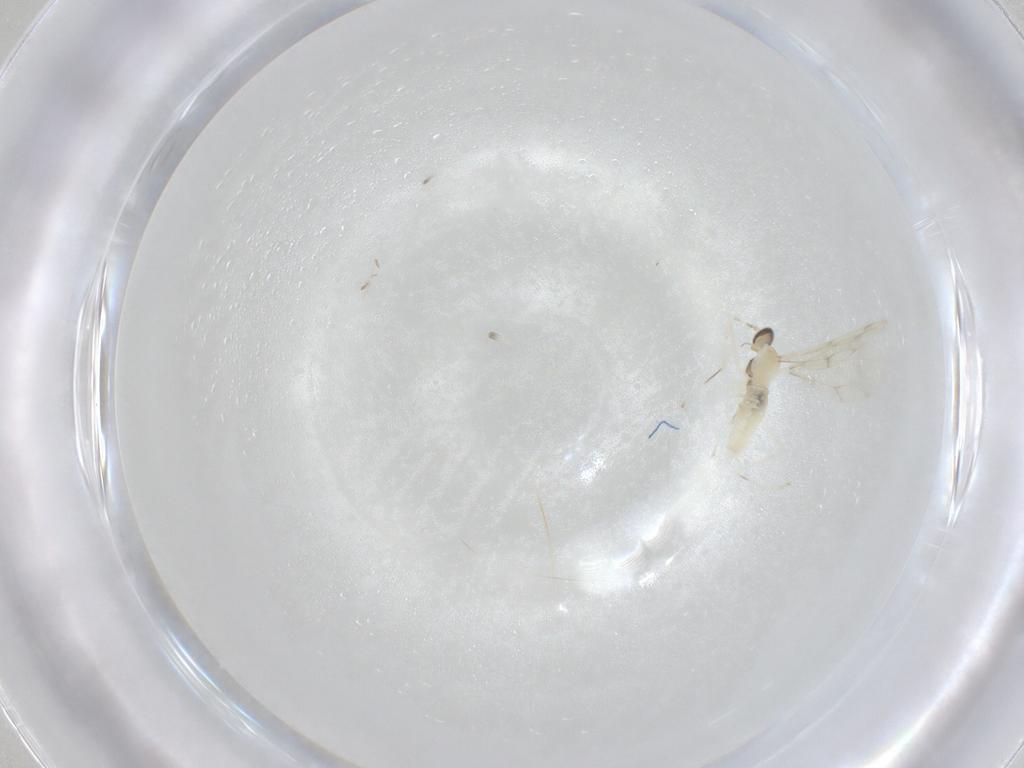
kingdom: Animalia
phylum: Arthropoda
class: Insecta
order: Diptera
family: Cecidomyiidae
